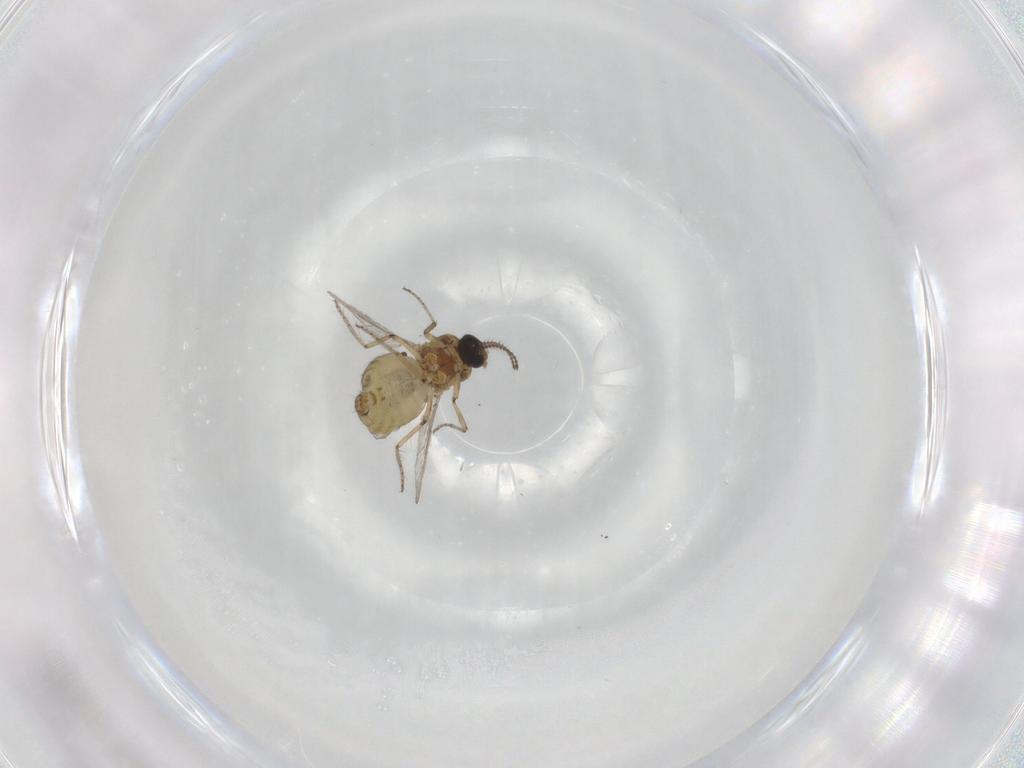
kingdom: Animalia
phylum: Arthropoda
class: Insecta
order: Diptera
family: Ceratopogonidae
